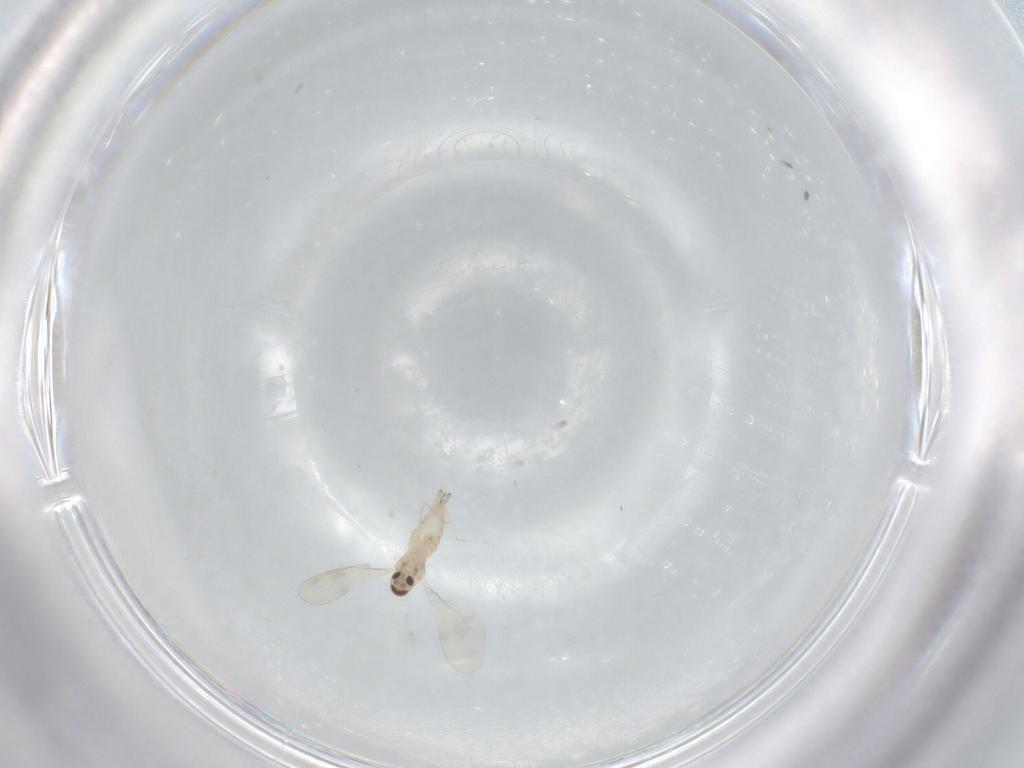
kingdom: Animalia
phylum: Arthropoda
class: Insecta
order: Diptera
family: Cecidomyiidae
